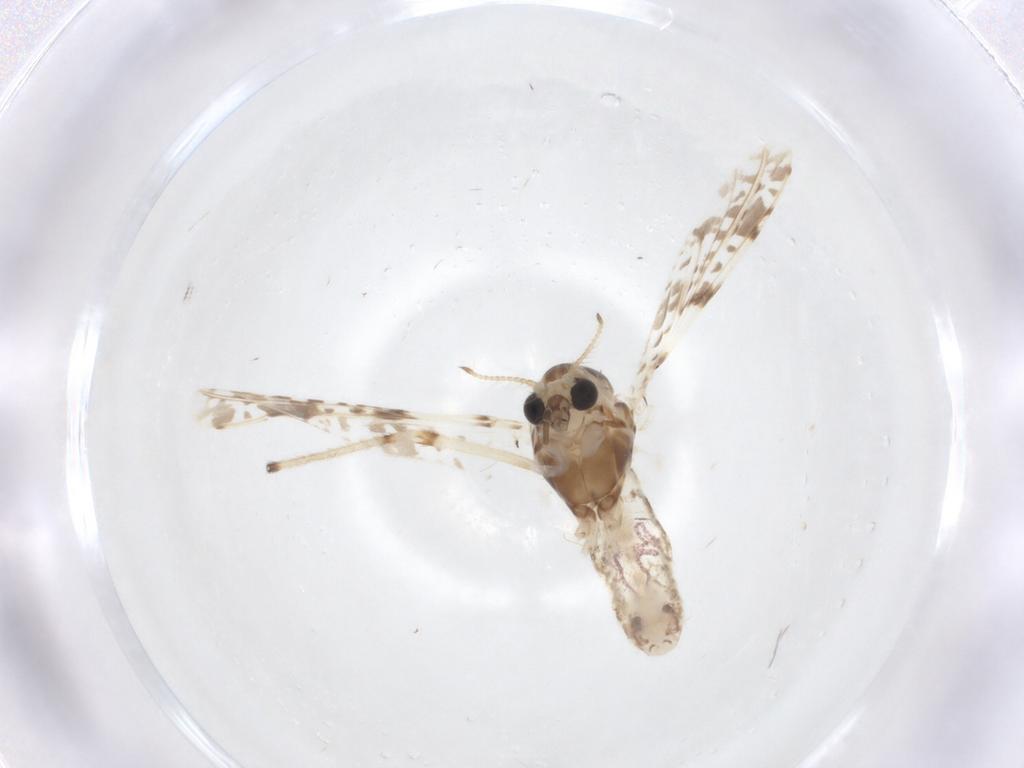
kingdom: Animalia
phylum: Arthropoda
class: Insecta
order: Diptera
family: Chironomidae
